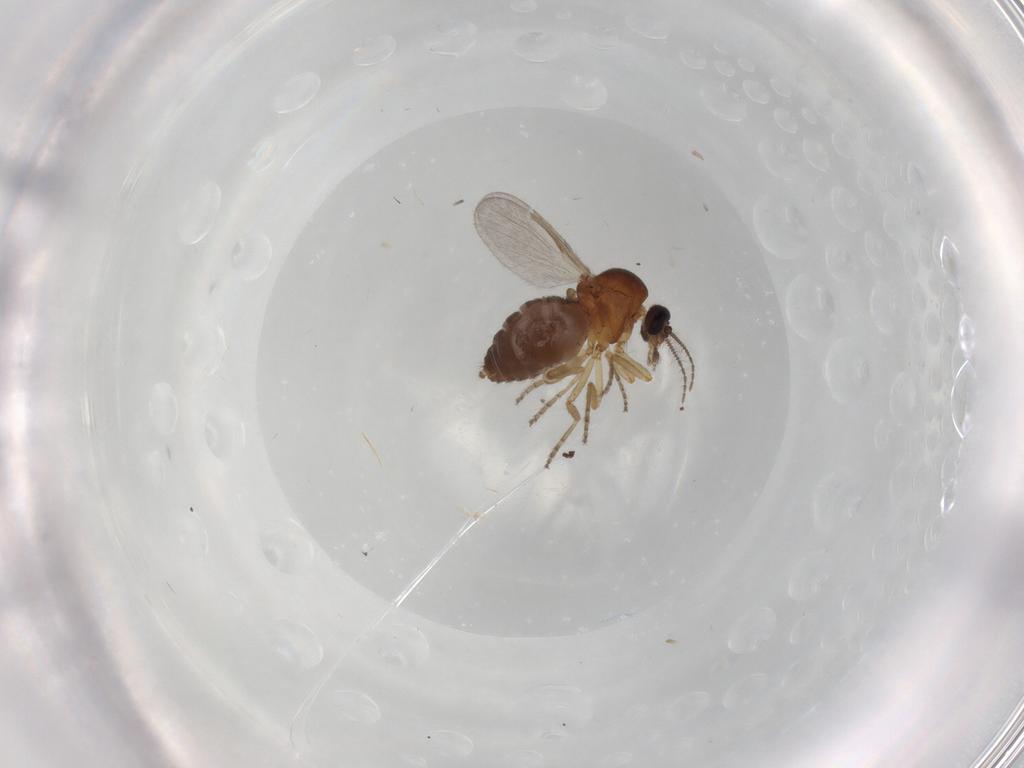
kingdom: Animalia
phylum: Arthropoda
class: Insecta
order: Diptera
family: Ceratopogonidae
